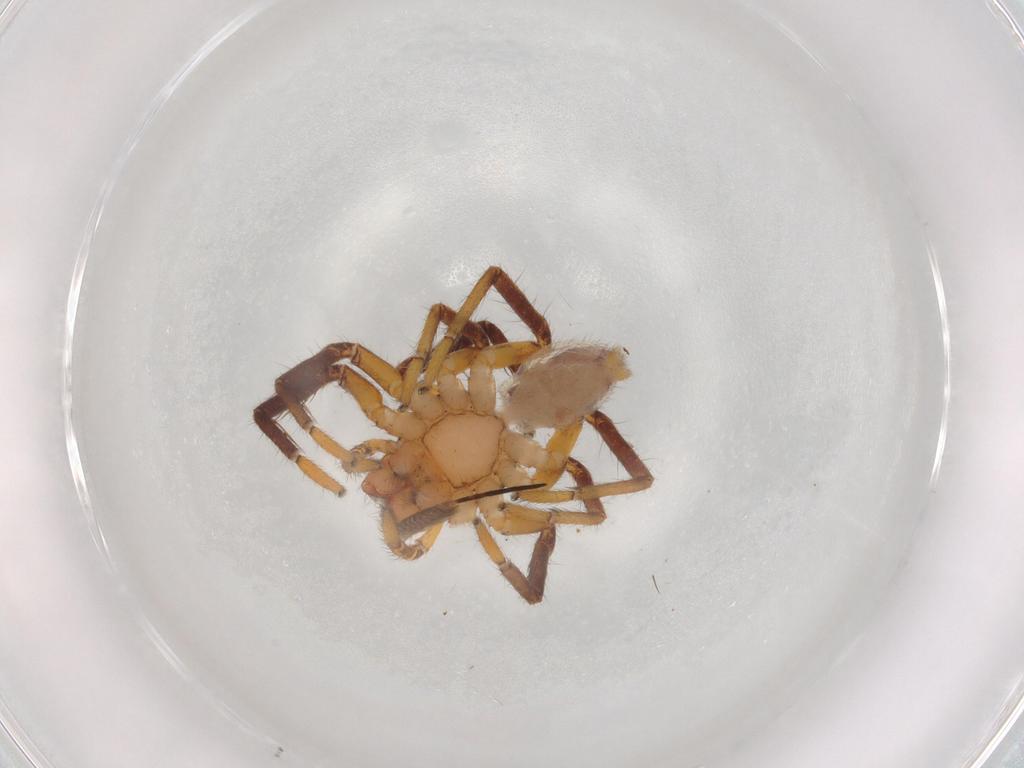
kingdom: Animalia
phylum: Arthropoda
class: Arachnida
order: Araneae
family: Corinnidae
